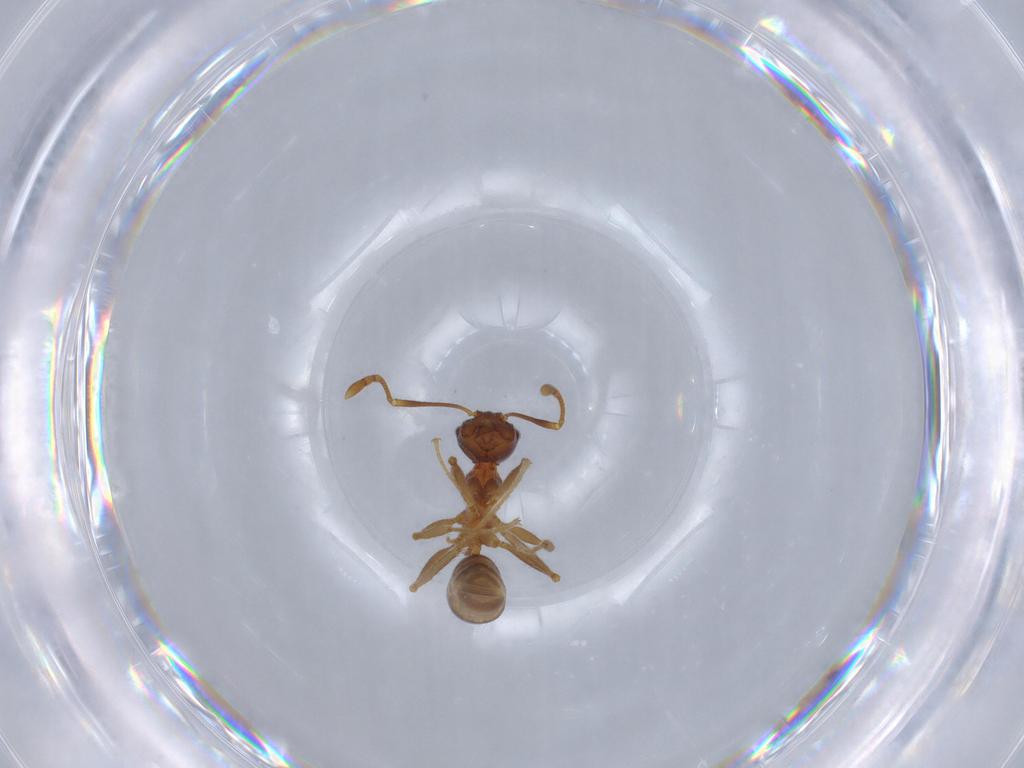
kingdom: Animalia
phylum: Arthropoda
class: Insecta
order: Hymenoptera
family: Formicidae
